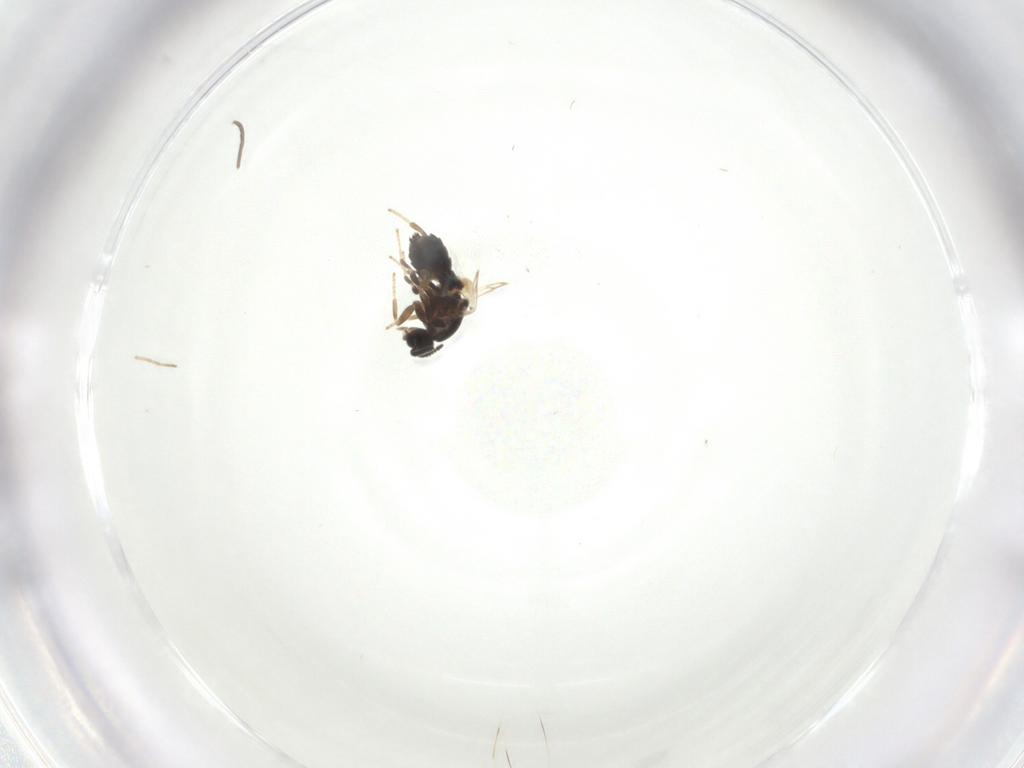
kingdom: Animalia
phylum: Arthropoda
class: Insecta
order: Diptera
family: Scatopsidae
